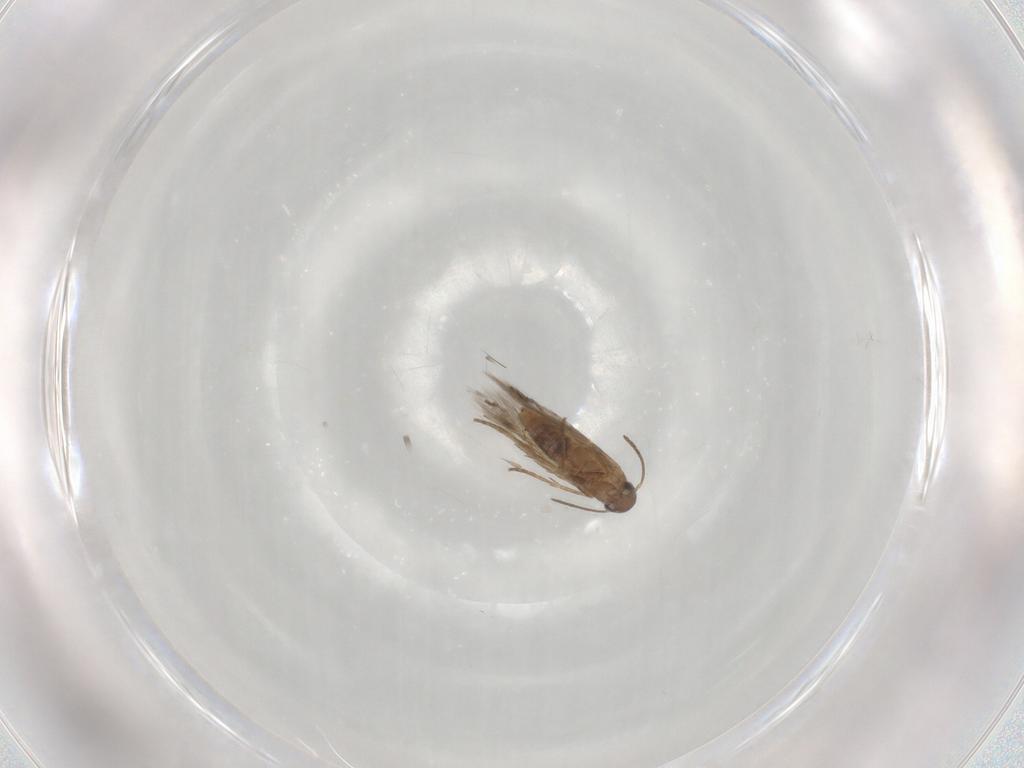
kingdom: Animalia
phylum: Arthropoda
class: Insecta
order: Lepidoptera
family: Heliozelidae
